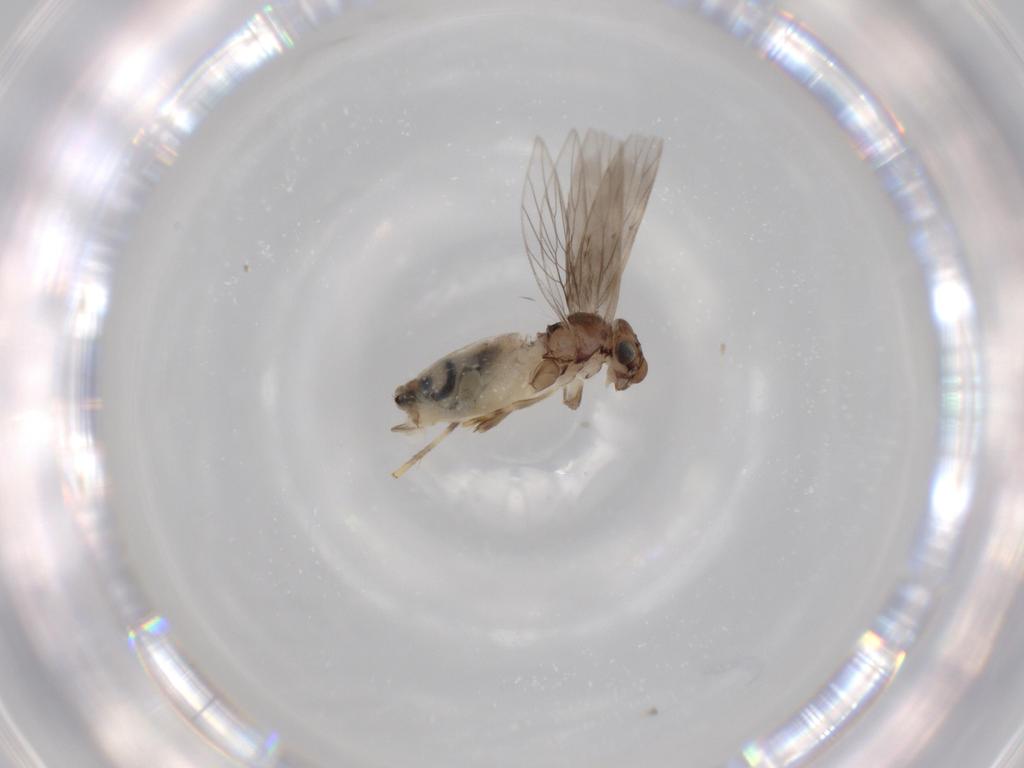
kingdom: Animalia
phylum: Arthropoda
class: Insecta
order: Psocodea
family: Lepidopsocidae
